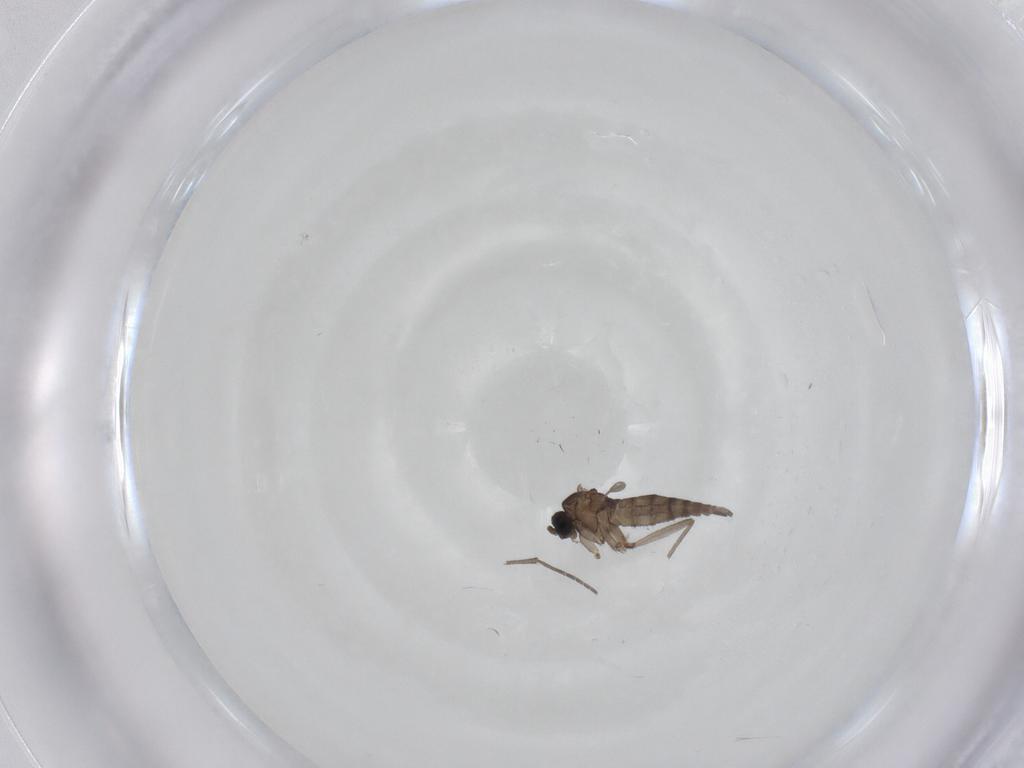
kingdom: Animalia
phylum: Arthropoda
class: Insecta
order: Diptera
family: Sciaridae
